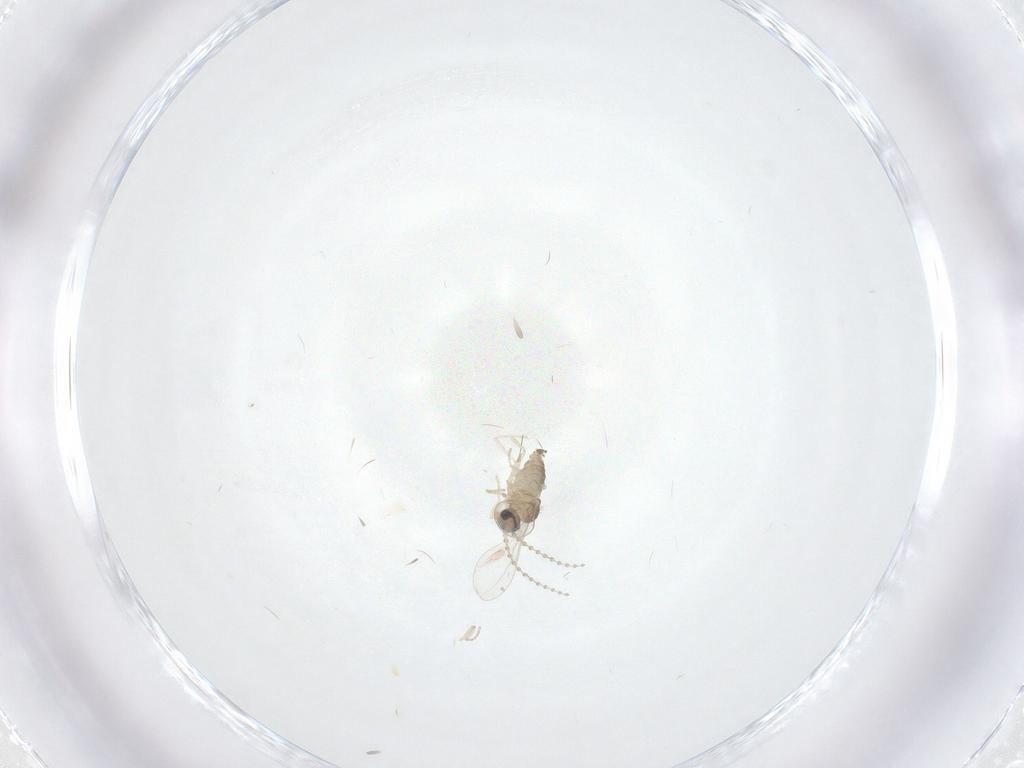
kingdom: Animalia
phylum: Arthropoda
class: Insecta
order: Diptera
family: Cecidomyiidae
